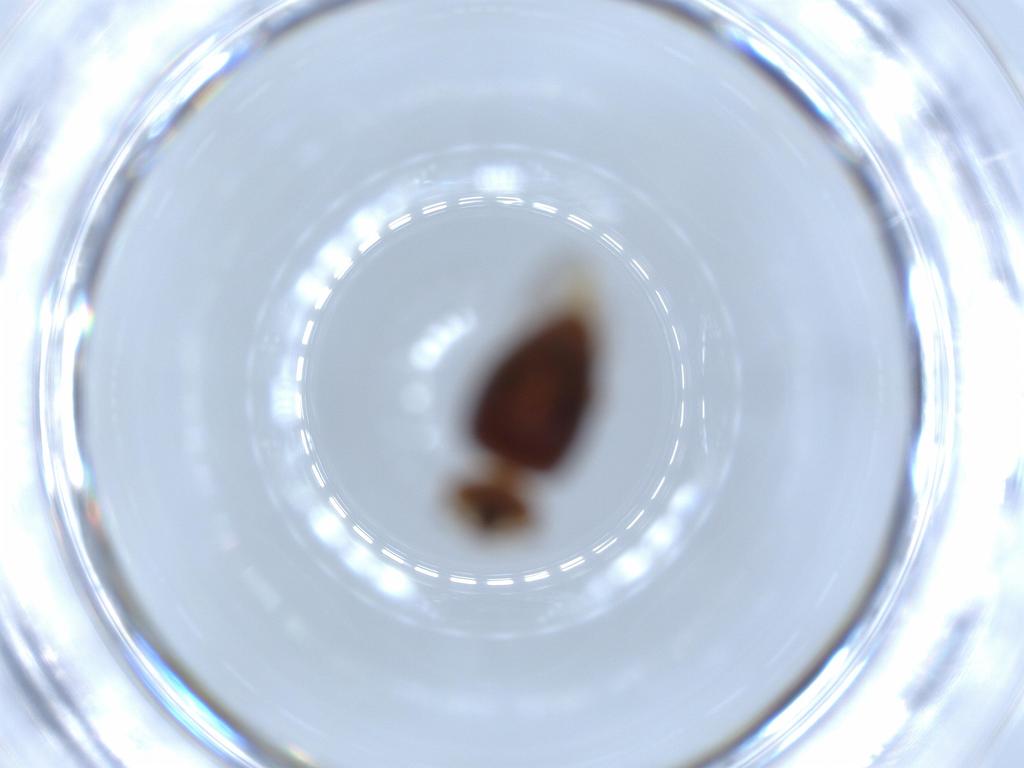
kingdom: Animalia
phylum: Arthropoda
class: Insecta
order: Coleoptera
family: Corylophidae
